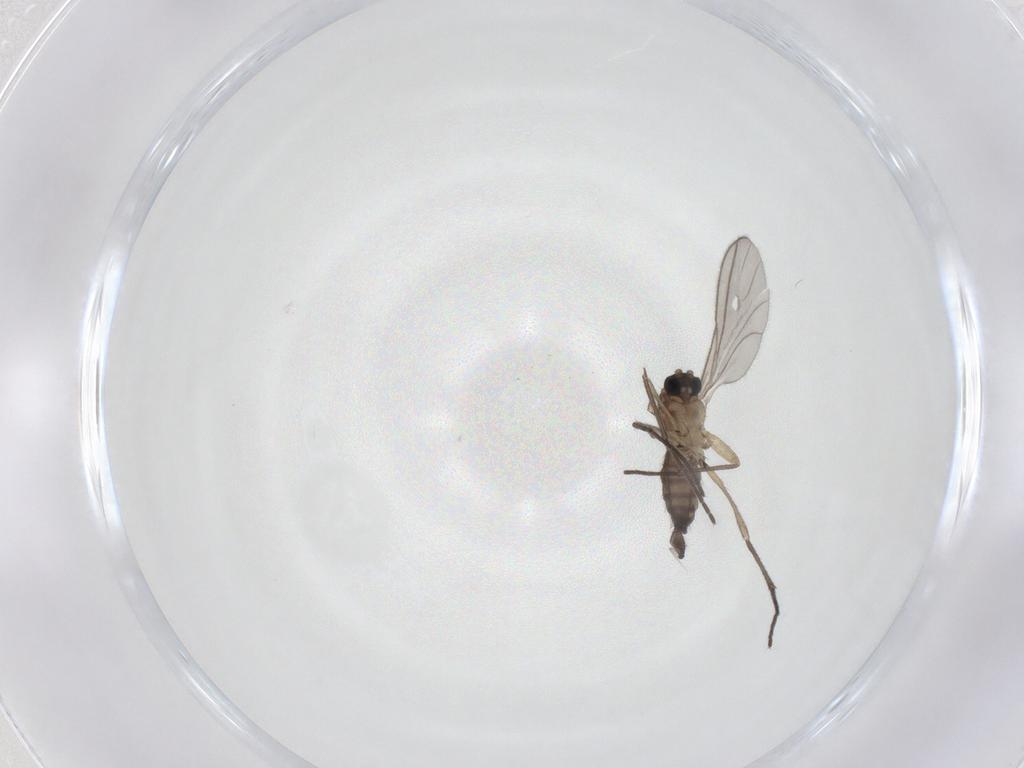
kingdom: Animalia
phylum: Arthropoda
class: Insecta
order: Diptera
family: Sciaridae
